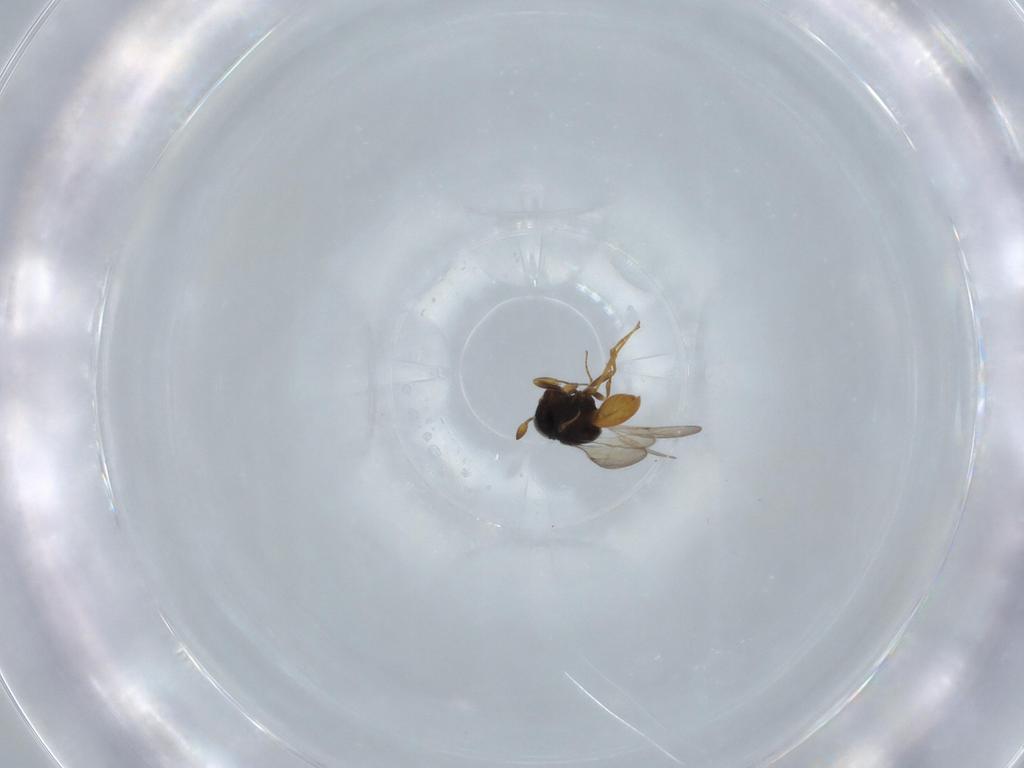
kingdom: Animalia
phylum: Arthropoda
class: Insecta
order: Hymenoptera
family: Scelionidae
